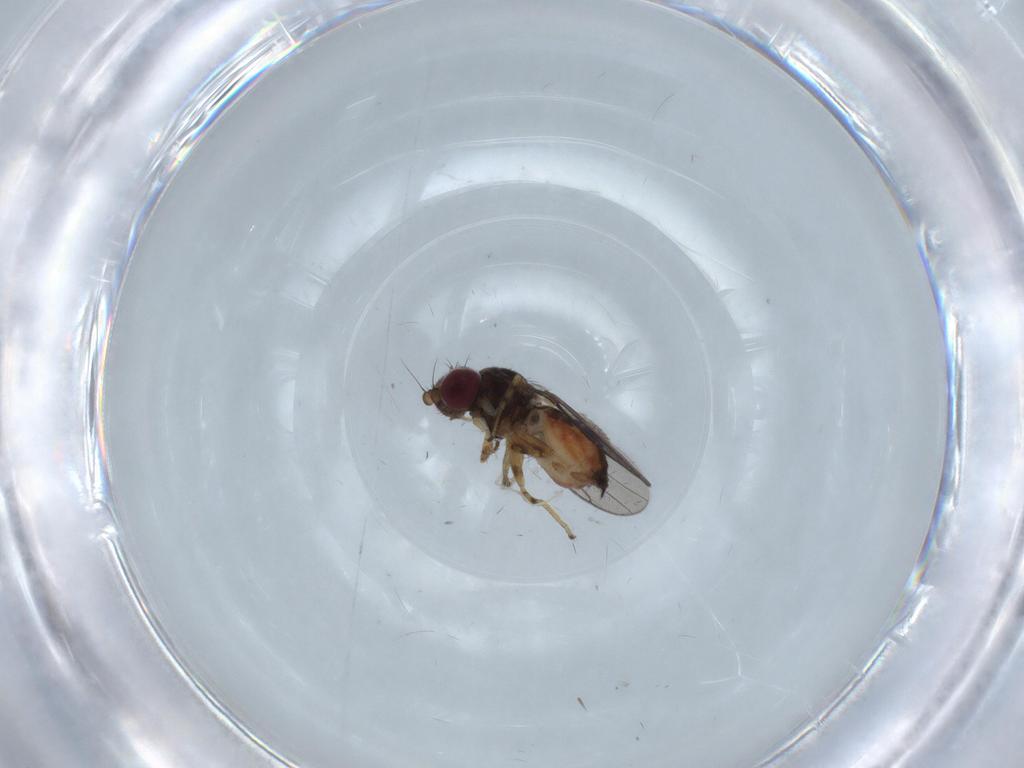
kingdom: Animalia
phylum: Arthropoda
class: Insecta
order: Diptera
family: Chloropidae
